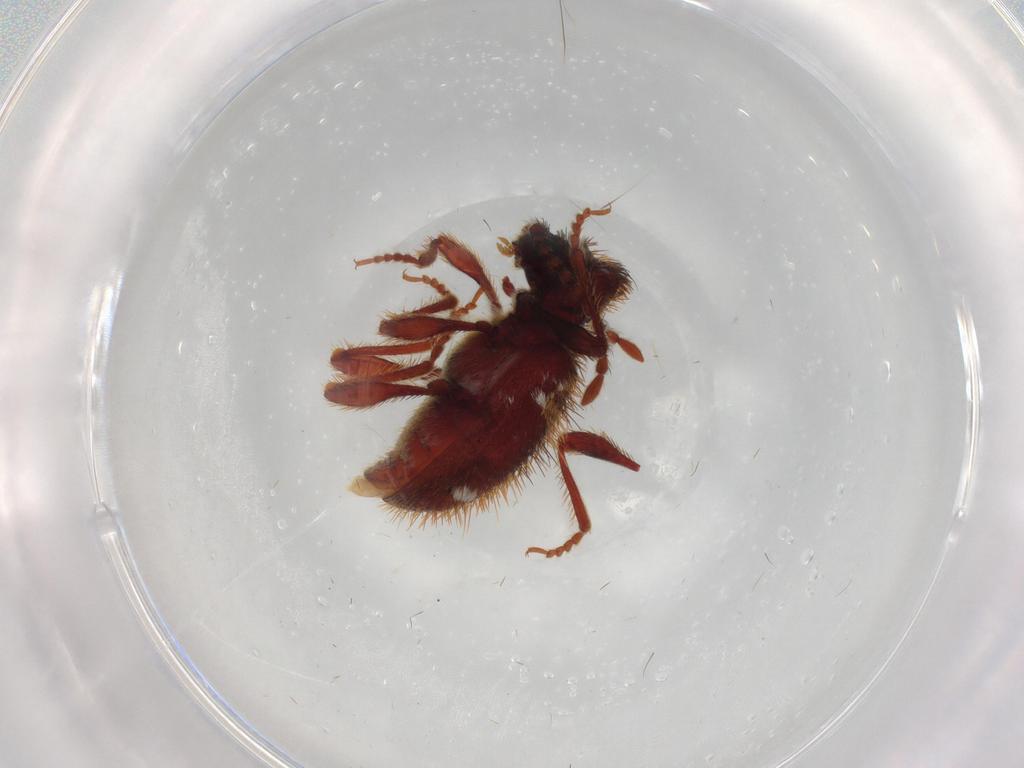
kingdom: Animalia
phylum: Arthropoda
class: Insecta
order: Coleoptera
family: Ptinidae
